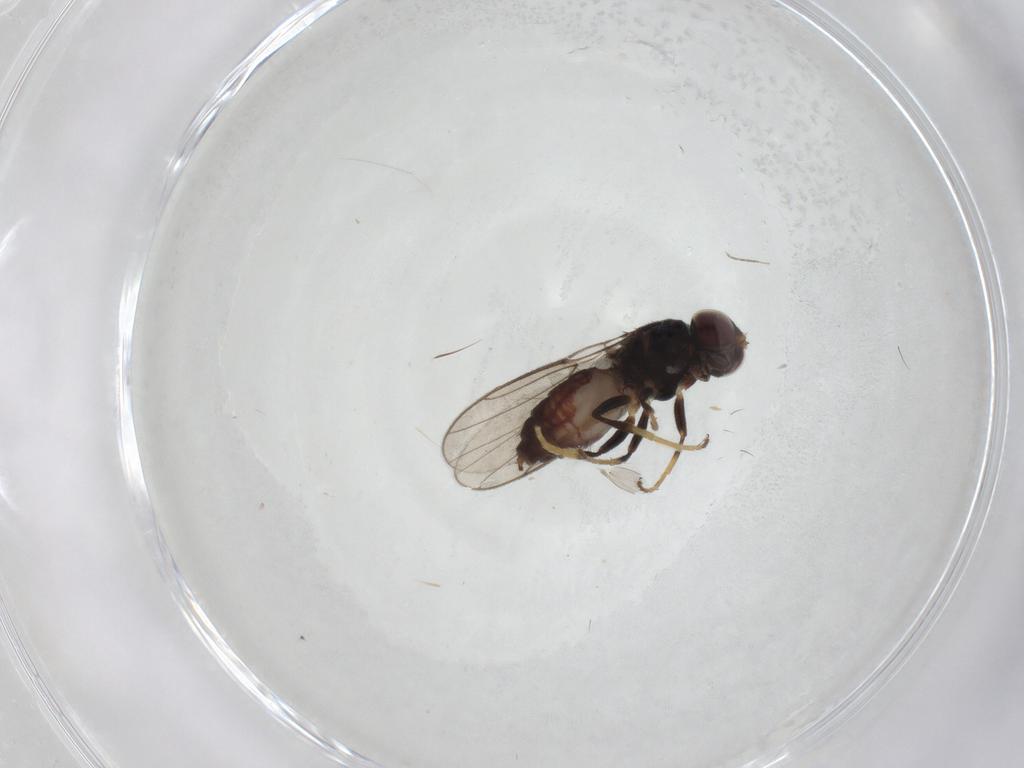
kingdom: Animalia
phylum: Arthropoda
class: Insecta
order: Diptera
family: Chloropidae
